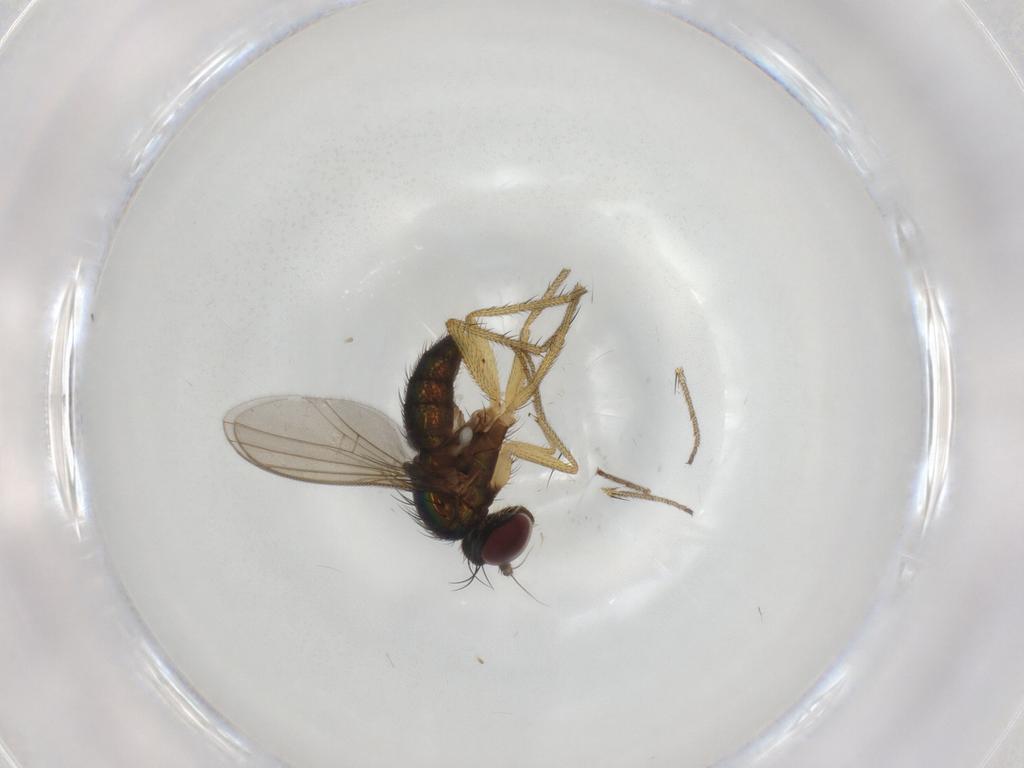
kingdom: Animalia
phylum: Arthropoda
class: Insecta
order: Diptera
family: Dolichopodidae
